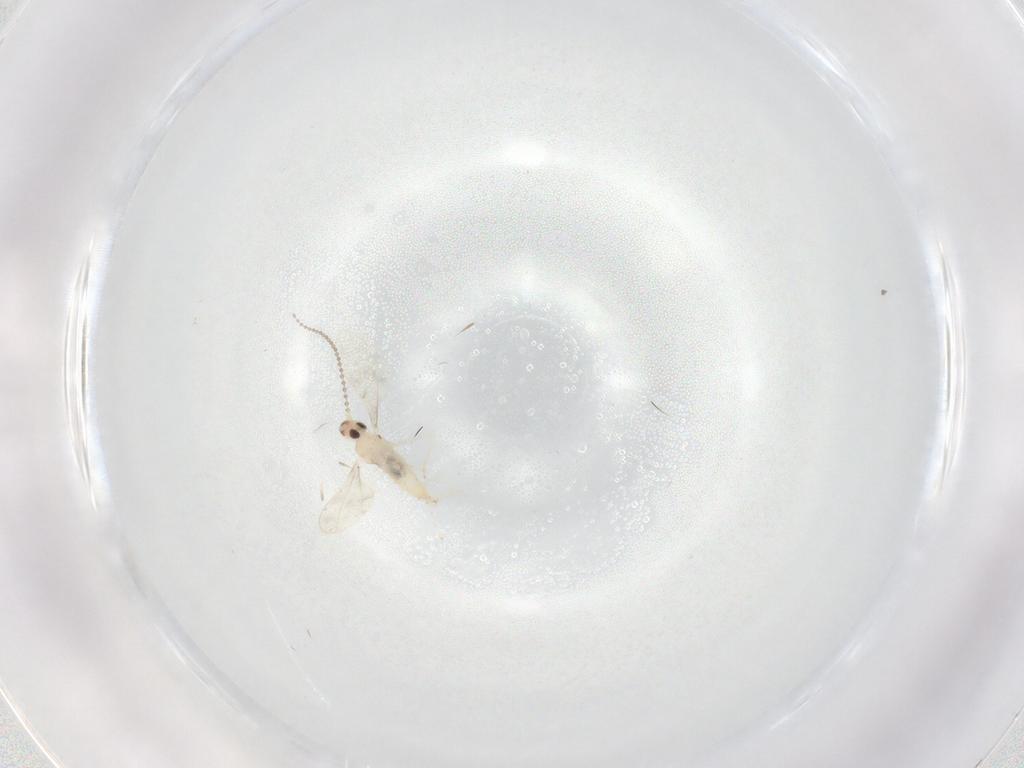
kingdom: Animalia
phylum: Arthropoda
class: Insecta
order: Diptera
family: Cecidomyiidae
